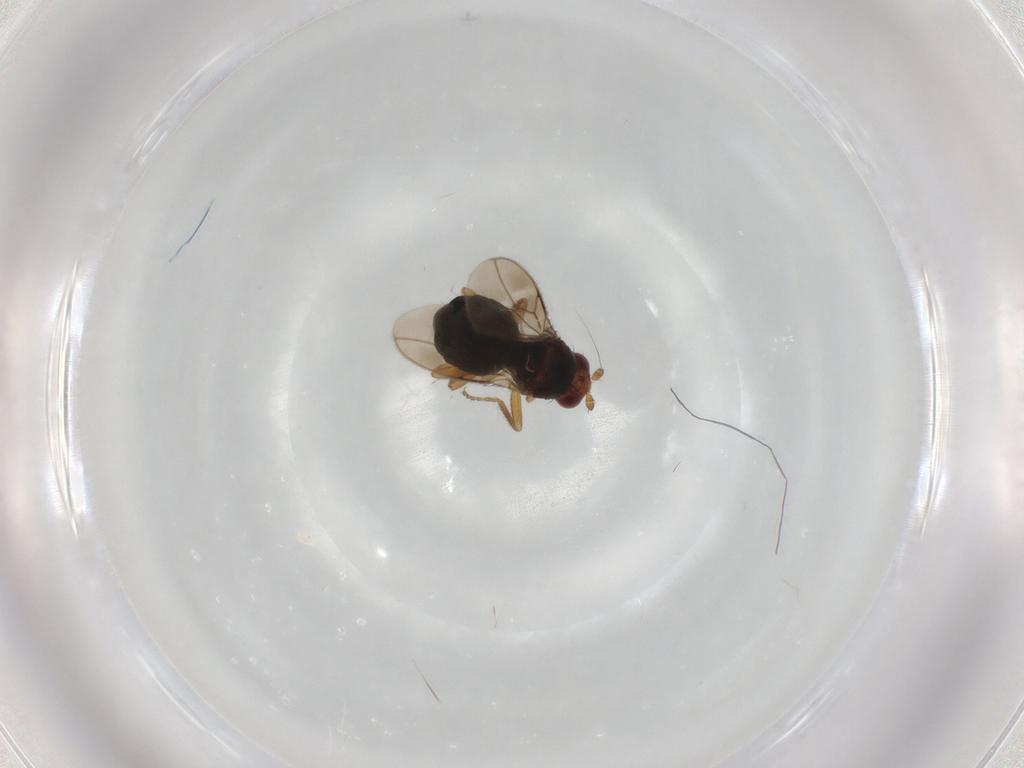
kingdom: Animalia
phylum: Arthropoda
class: Insecta
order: Diptera
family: Sphaeroceridae
